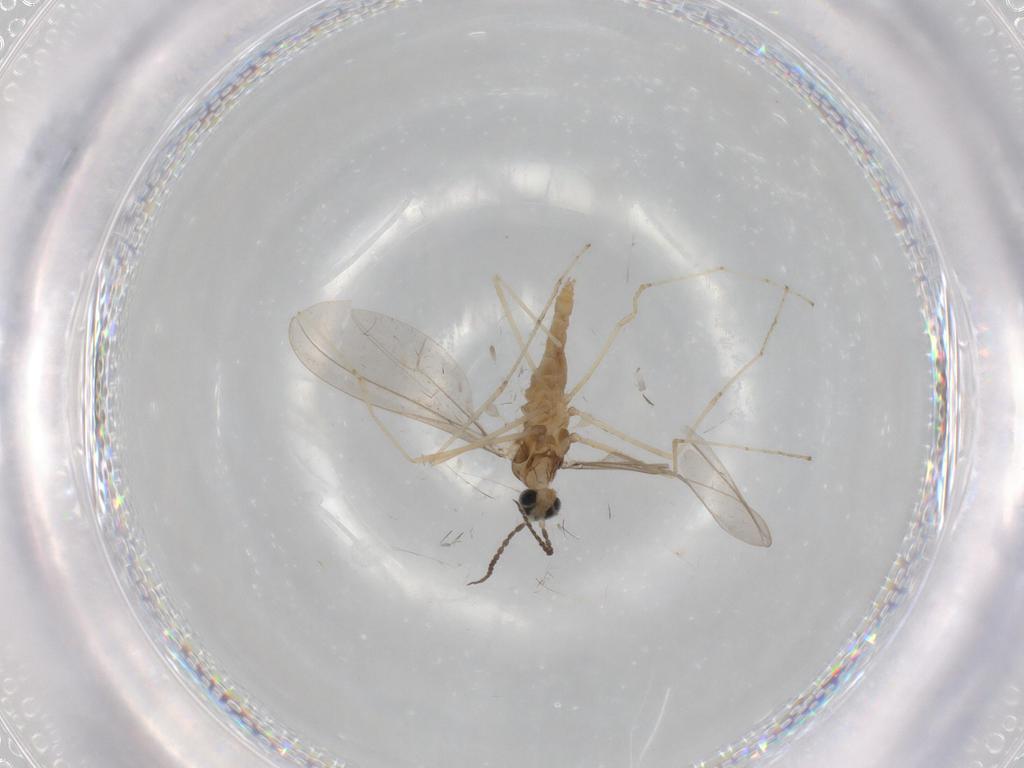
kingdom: Animalia
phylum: Arthropoda
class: Insecta
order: Diptera
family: Cecidomyiidae
